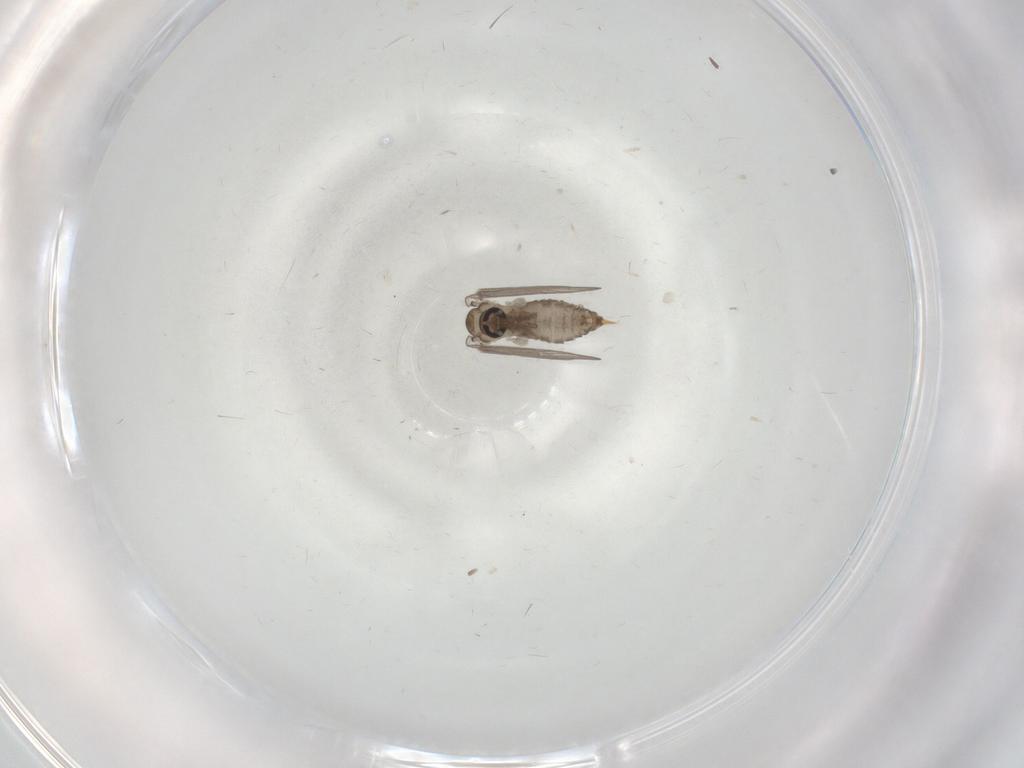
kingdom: Animalia
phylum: Arthropoda
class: Insecta
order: Diptera
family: Psychodidae
